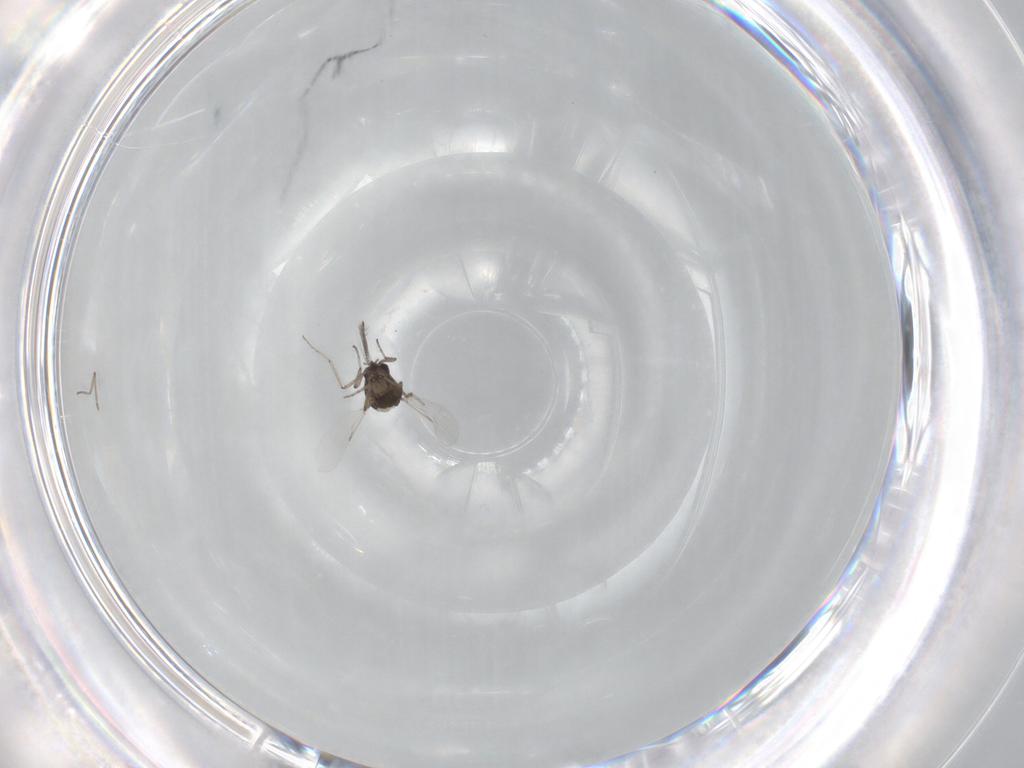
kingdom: Animalia
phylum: Arthropoda
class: Insecta
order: Diptera
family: Ceratopogonidae
